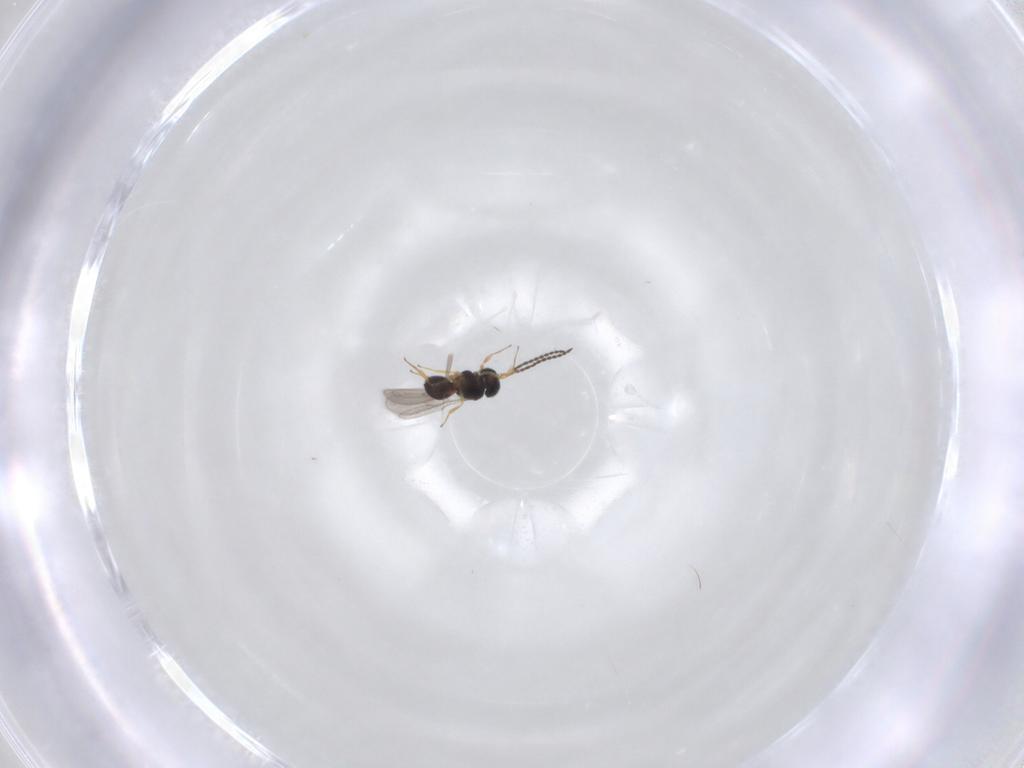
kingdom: Animalia
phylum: Arthropoda
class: Insecta
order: Hymenoptera
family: Scelionidae
